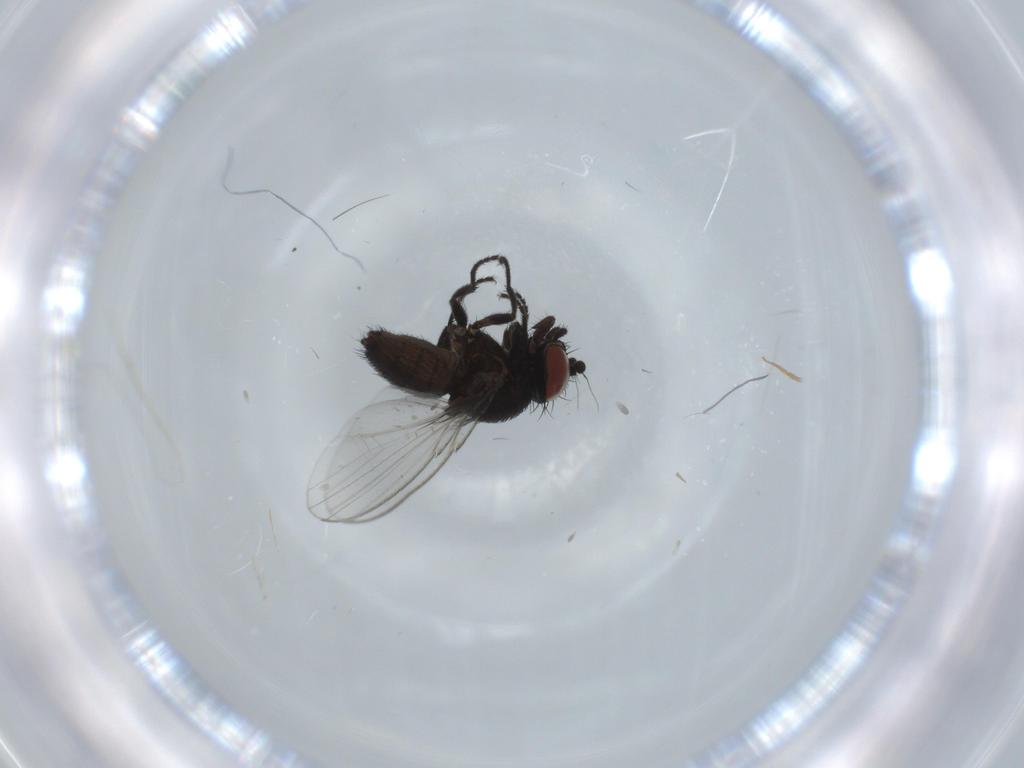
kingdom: Animalia
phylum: Arthropoda
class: Insecta
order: Diptera
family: Milichiidae
